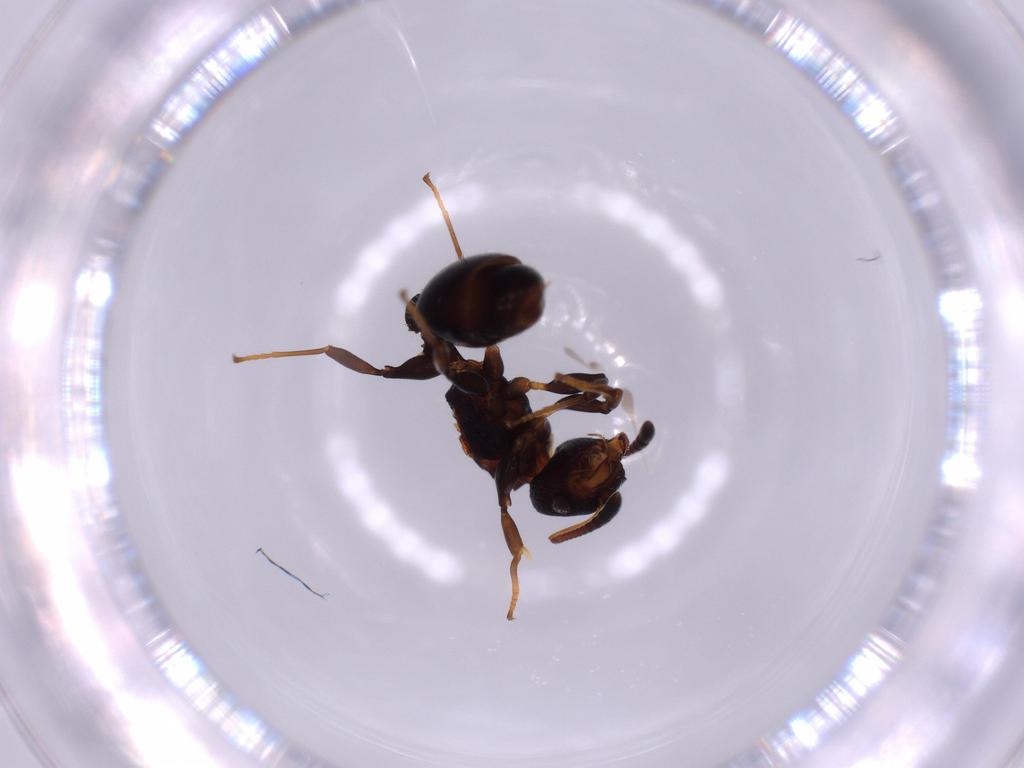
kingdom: Animalia
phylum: Arthropoda
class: Insecta
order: Hymenoptera
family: Formicidae
